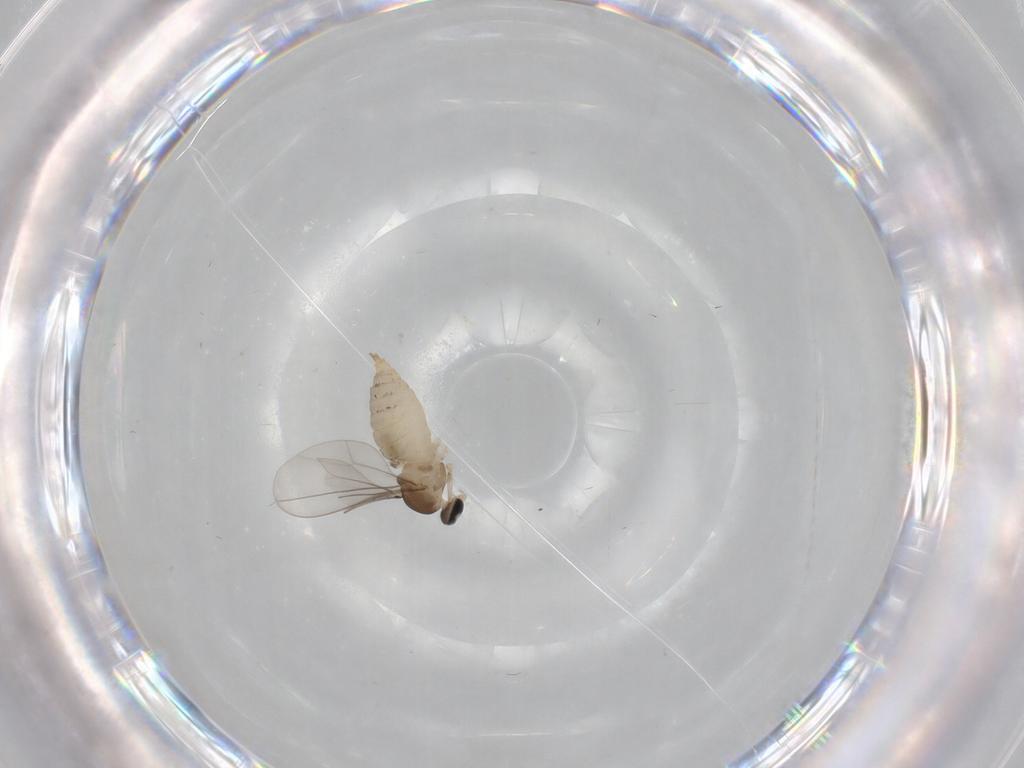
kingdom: Animalia
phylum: Arthropoda
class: Insecta
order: Diptera
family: Cecidomyiidae
